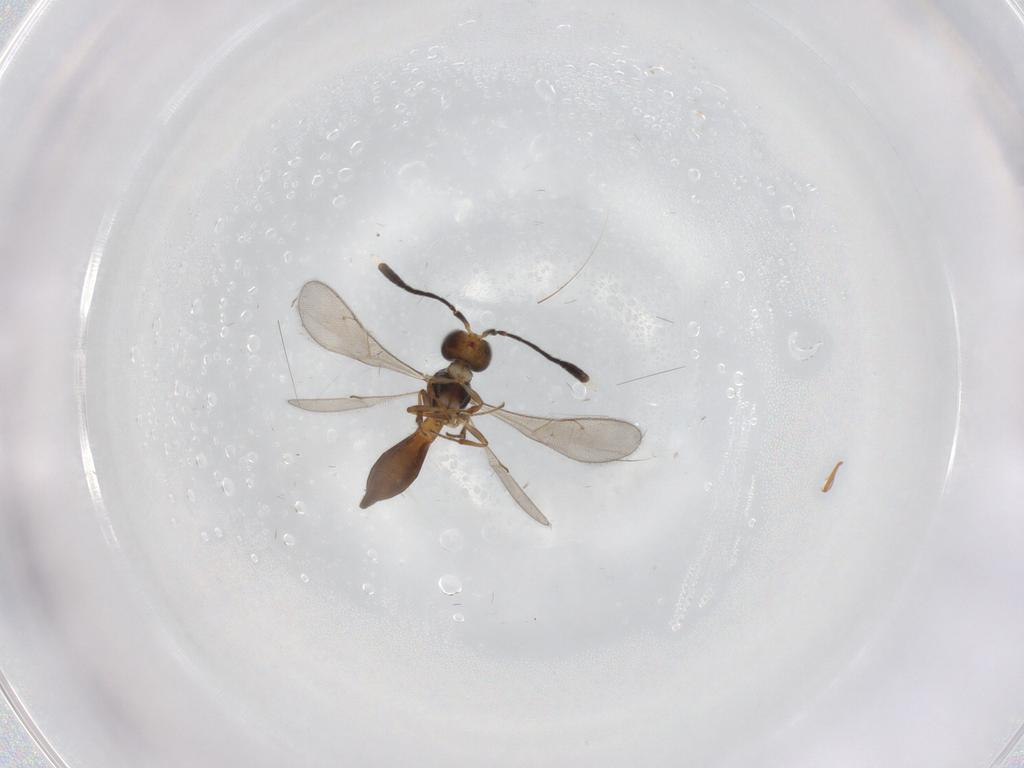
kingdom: Animalia
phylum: Arthropoda
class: Insecta
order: Hymenoptera
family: Scelionidae
